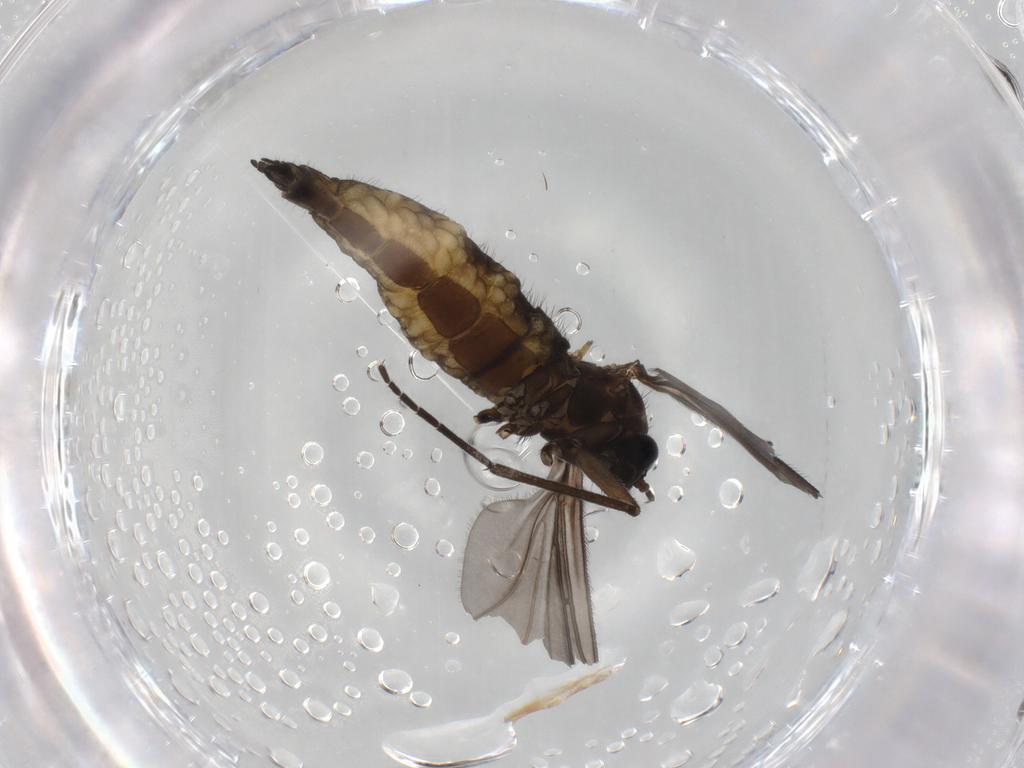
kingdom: Animalia
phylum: Arthropoda
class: Insecta
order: Diptera
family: Sciaridae
